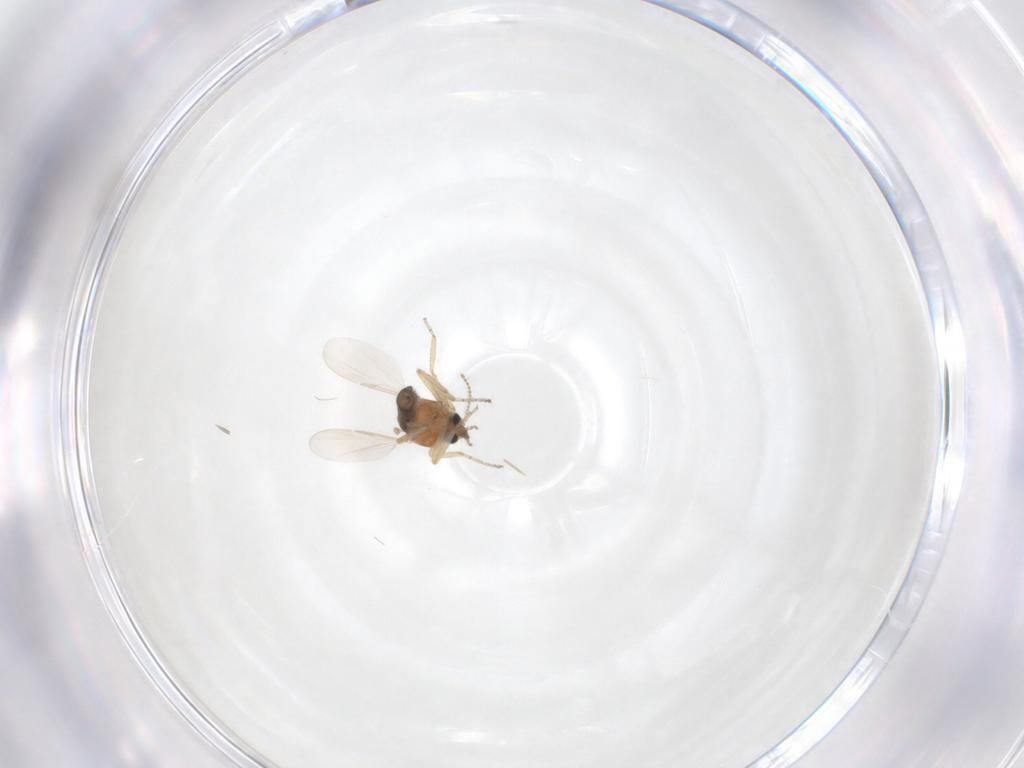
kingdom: Animalia
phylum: Arthropoda
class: Insecta
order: Diptera
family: Ceratopogonidae
